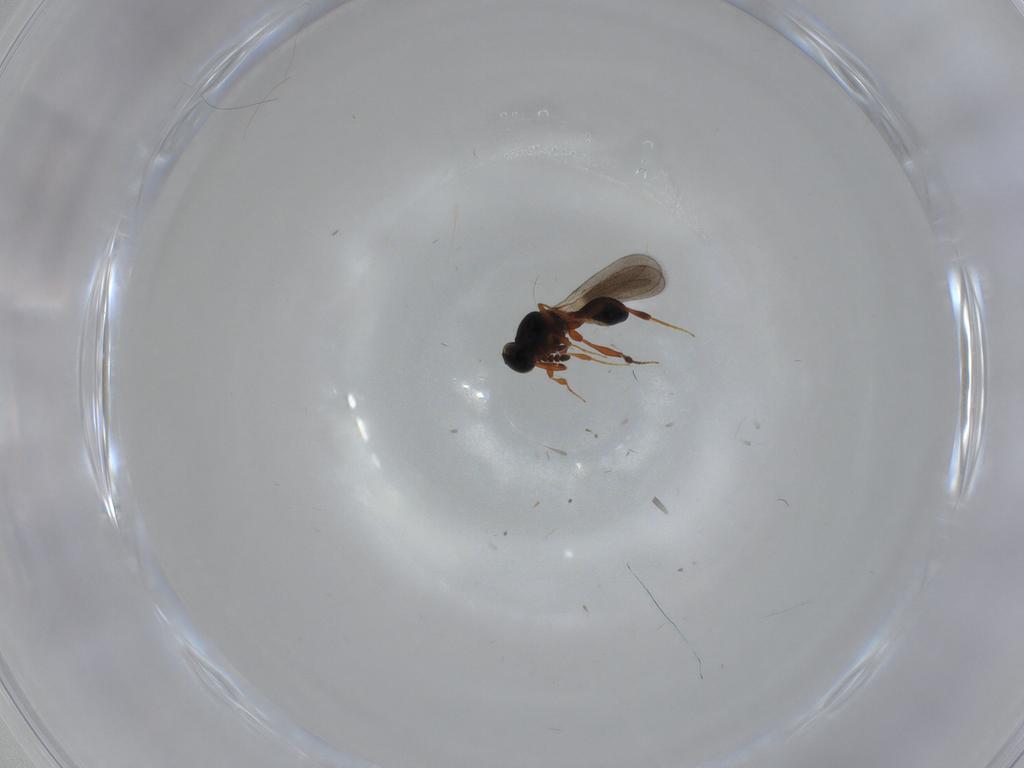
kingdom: Animalia
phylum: Arthropoda
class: Insecta
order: Hymenoptera
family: Platygastridae
